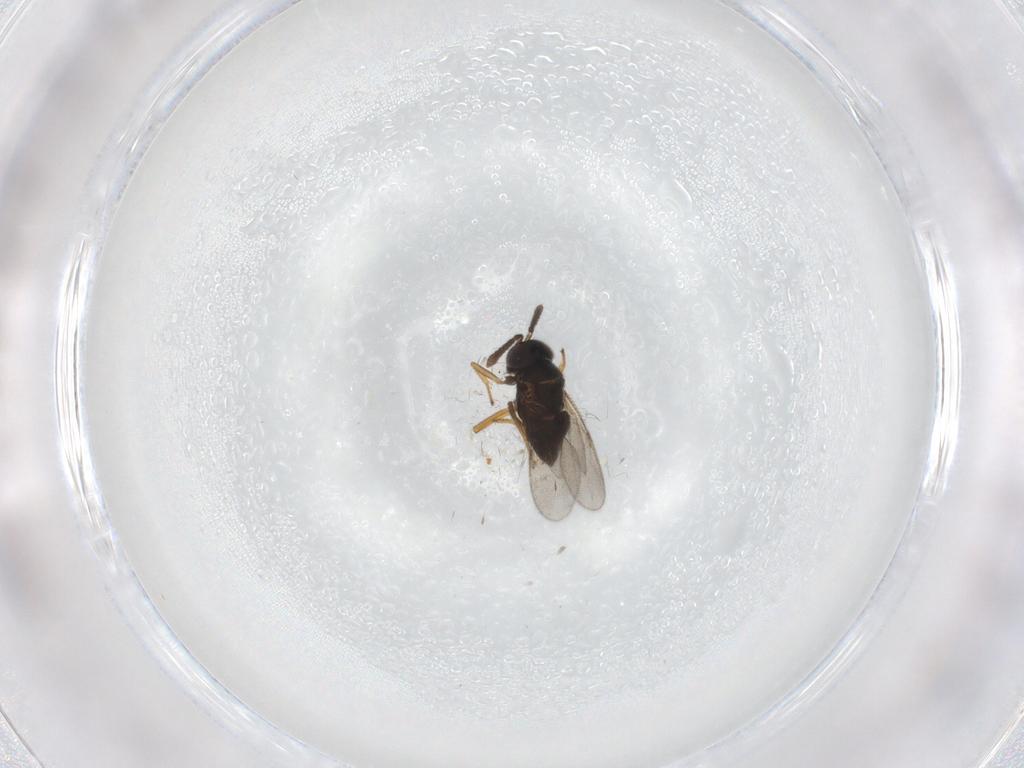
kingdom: Animalia
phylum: Arthropoda
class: Insecta
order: Hymenoptera
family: Encyrtidae
